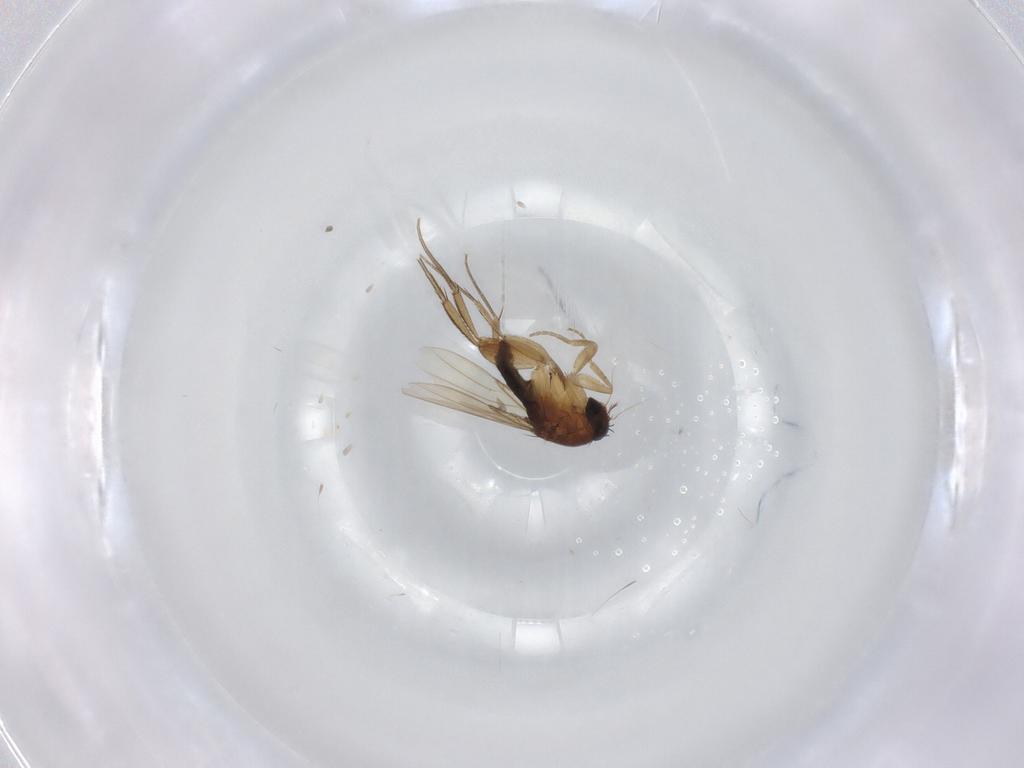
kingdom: Animalia
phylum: Arthropoda
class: Insecta
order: Diptera
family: Phoridae
